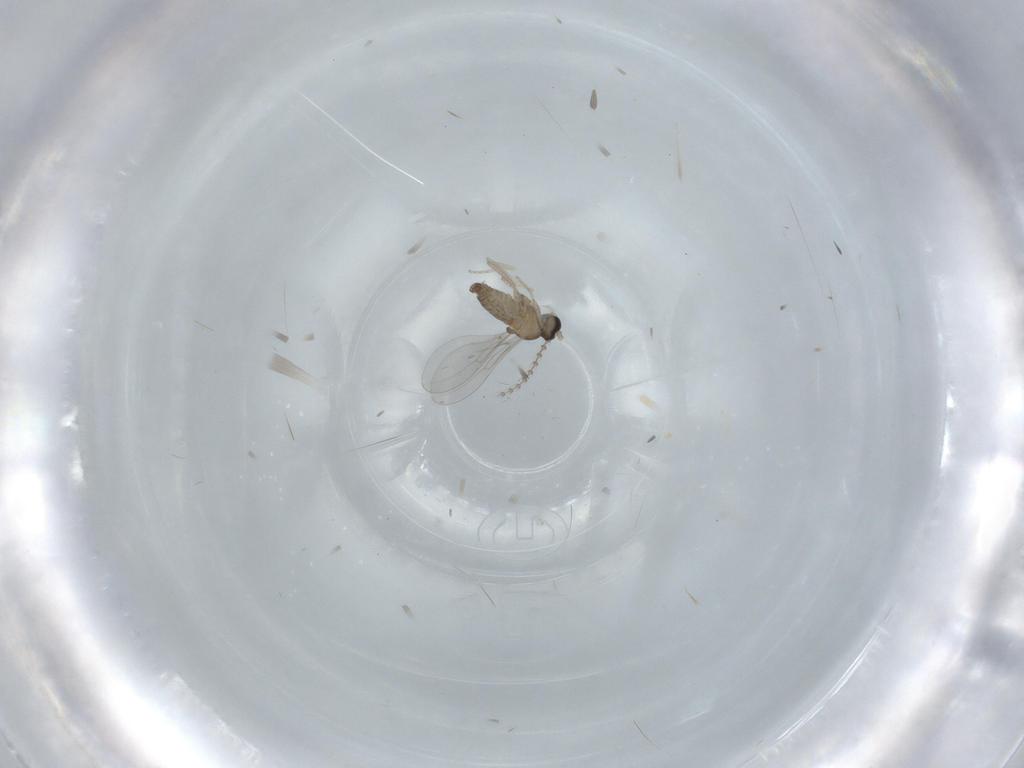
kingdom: Animalia
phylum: Arthropoda
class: Insecta
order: Diptera
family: Cecidomyiidae
